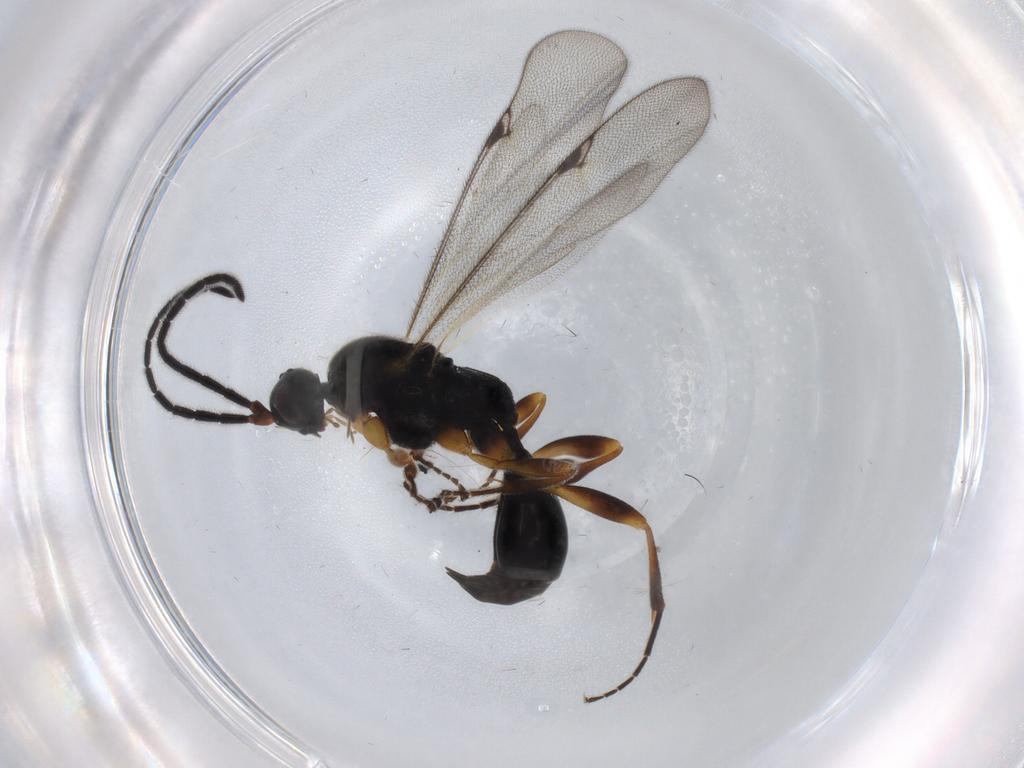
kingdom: Animalia
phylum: Arthropoda
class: Insecta
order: Hymenoptera
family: Proctotrupidae
